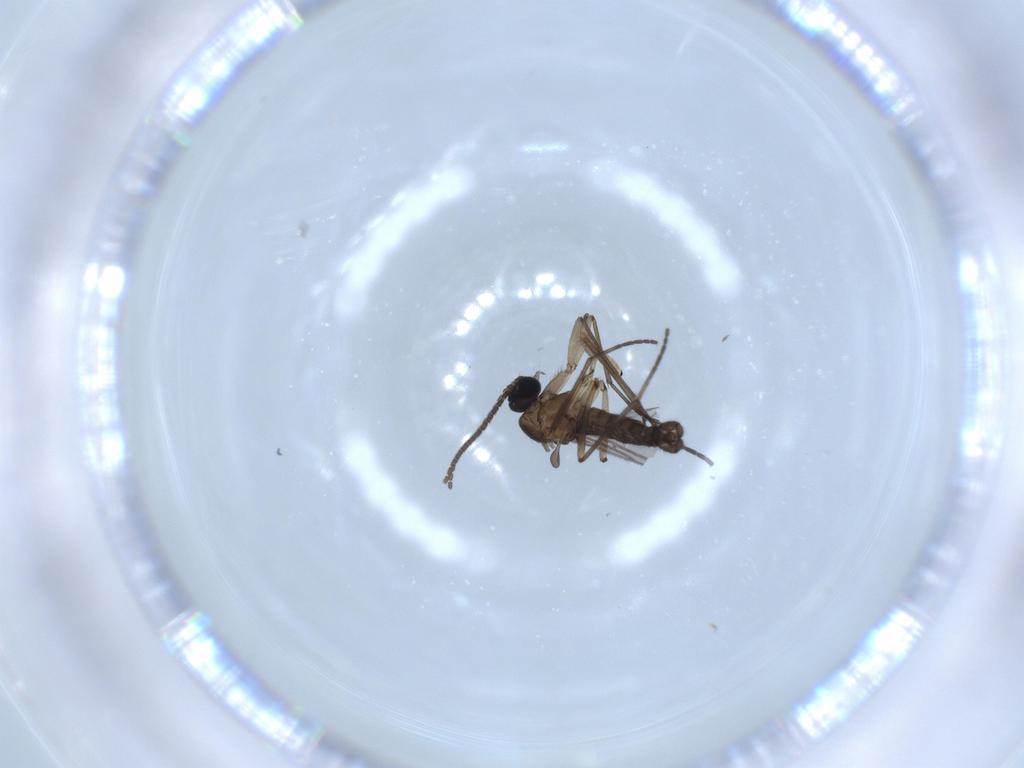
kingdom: Animalia
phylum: Arthropoda
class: Insecta
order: Diptera
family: Sciaridae
